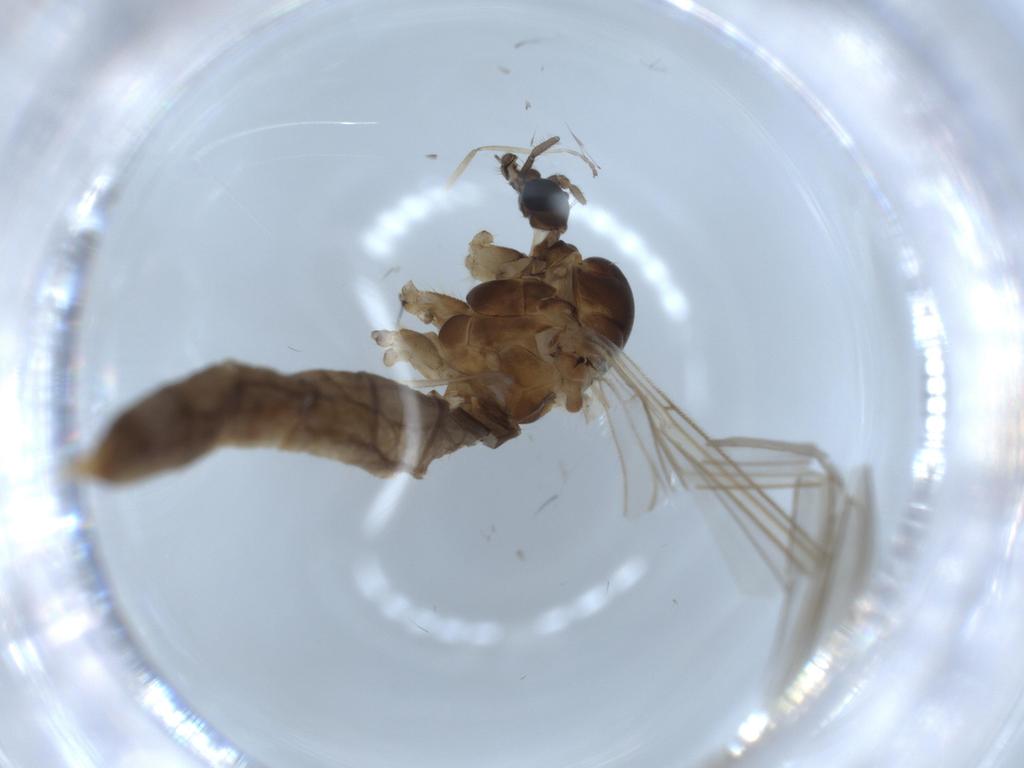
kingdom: Animalia
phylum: Arthropoda
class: Insecta
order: Diptera
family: Trichoceridae
